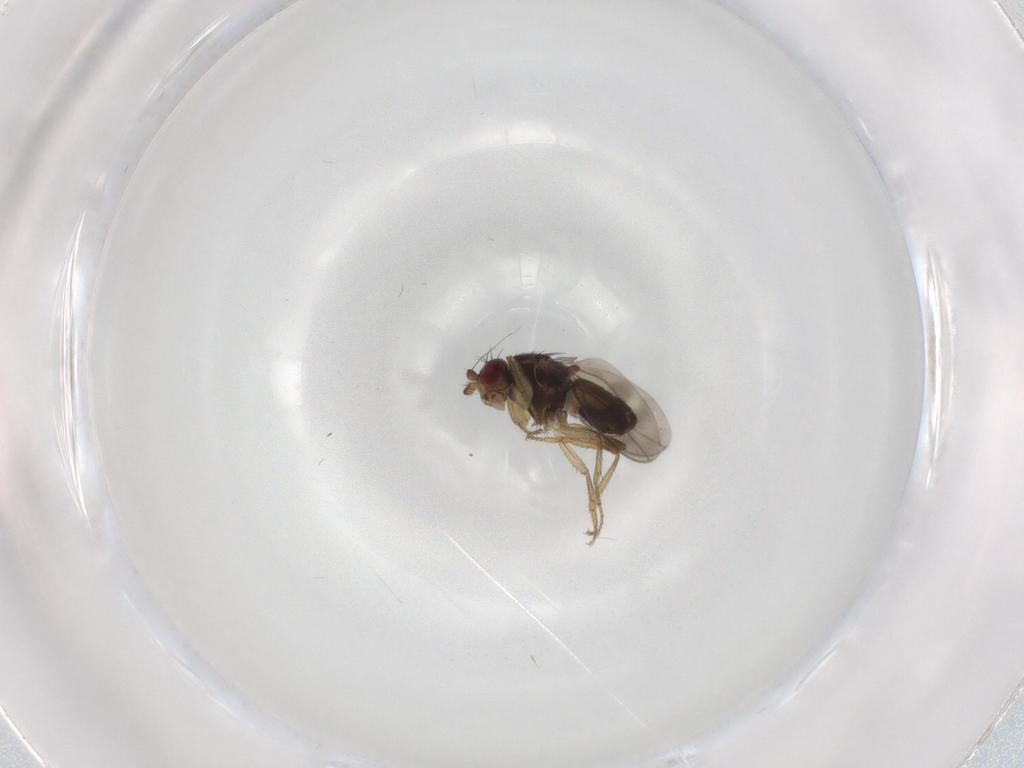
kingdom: Animalia
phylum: Arthropoda
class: Insecta
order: Diptera
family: Sphaeroceridae
